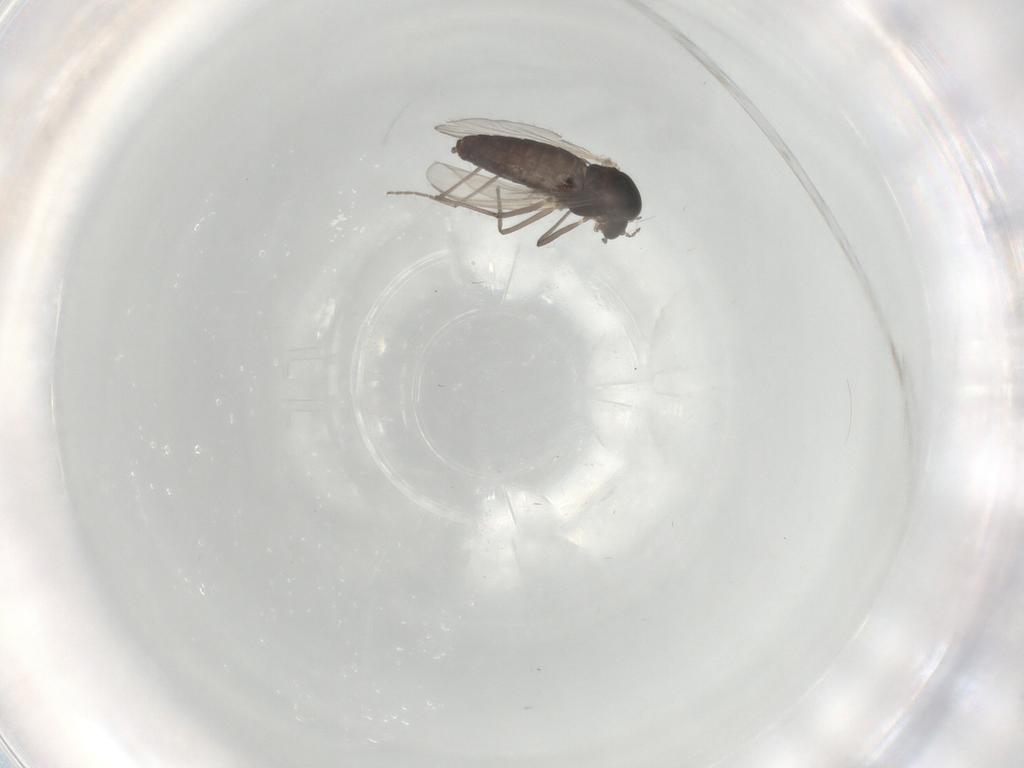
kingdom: Animalia
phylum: Arthropoda
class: Insecta
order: Diptera
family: Chironomidae
